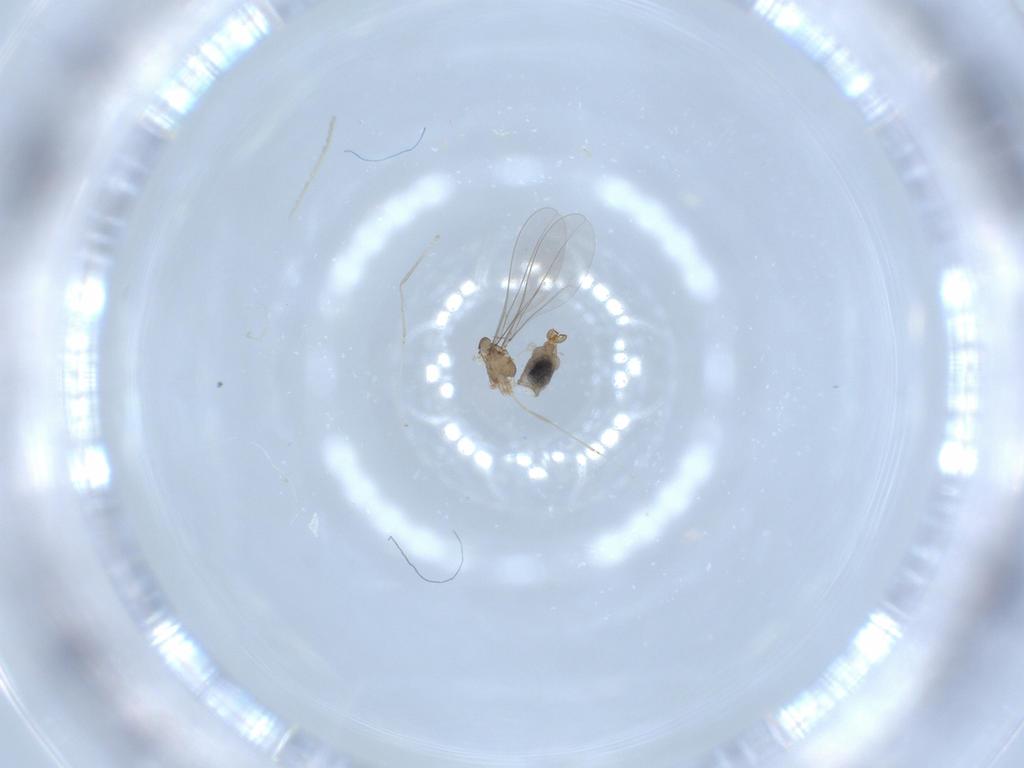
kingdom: Animalia
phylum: Arthropoda
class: Insecta
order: Diptera
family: Cecidomyiidae
